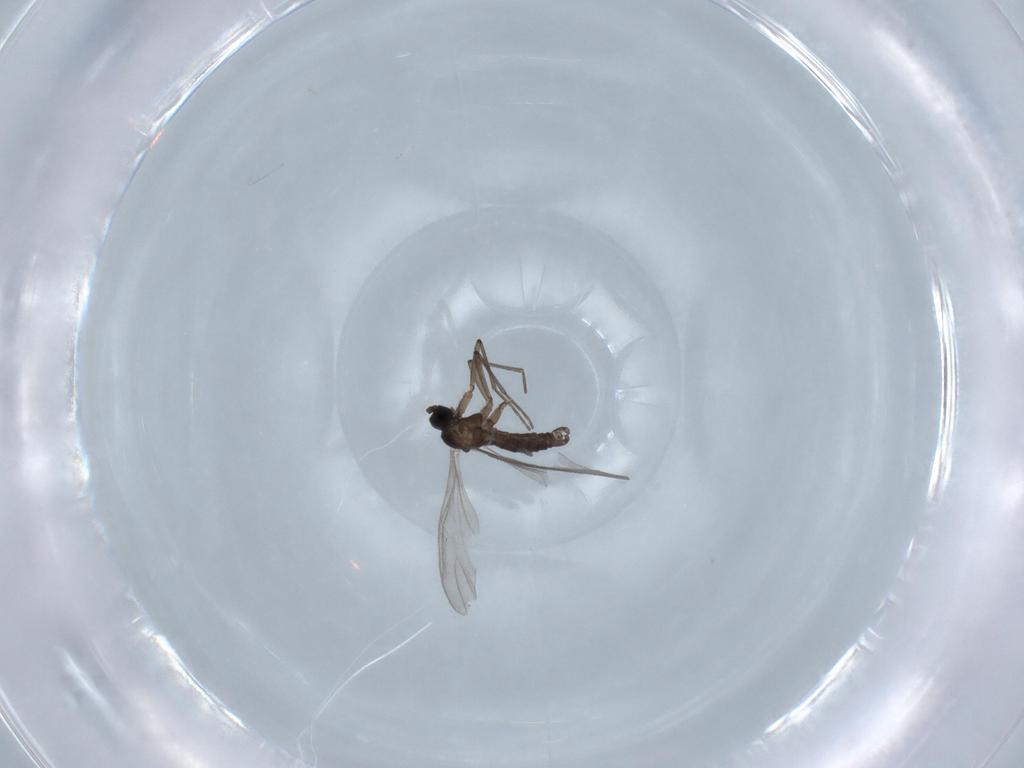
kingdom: Animalia
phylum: Arthropoda
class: Insecta
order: Diptera
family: Sciaridae
